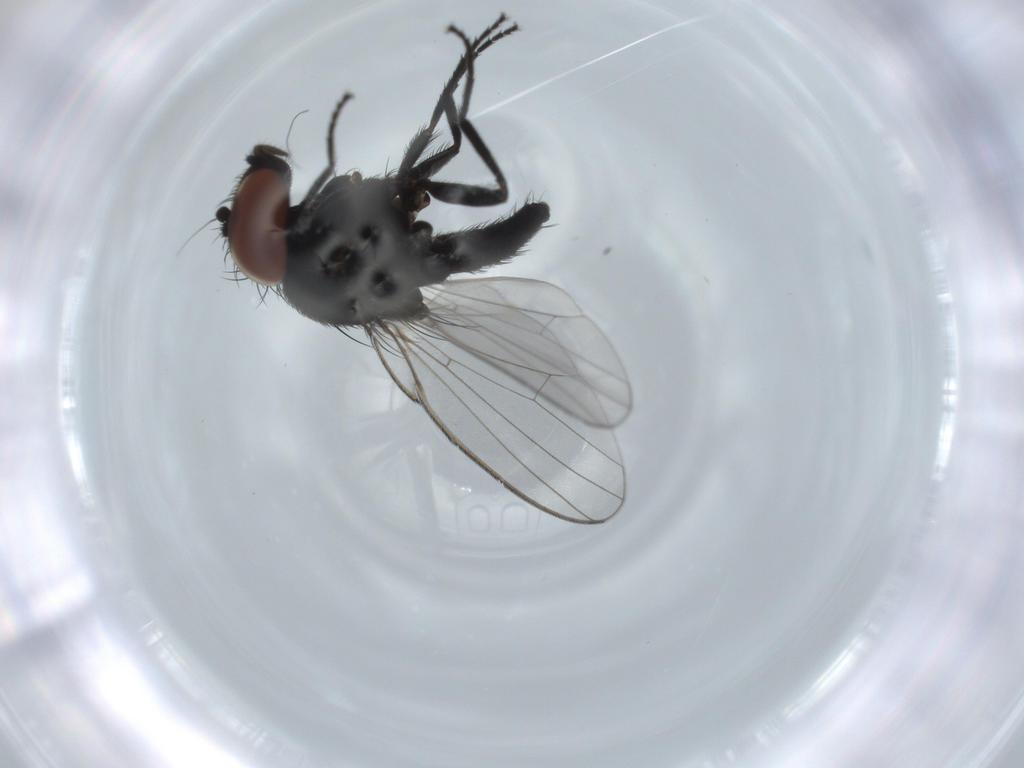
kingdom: Animalia
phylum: Arthropoda
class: Insecta
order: Diptera
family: Milichiidae
